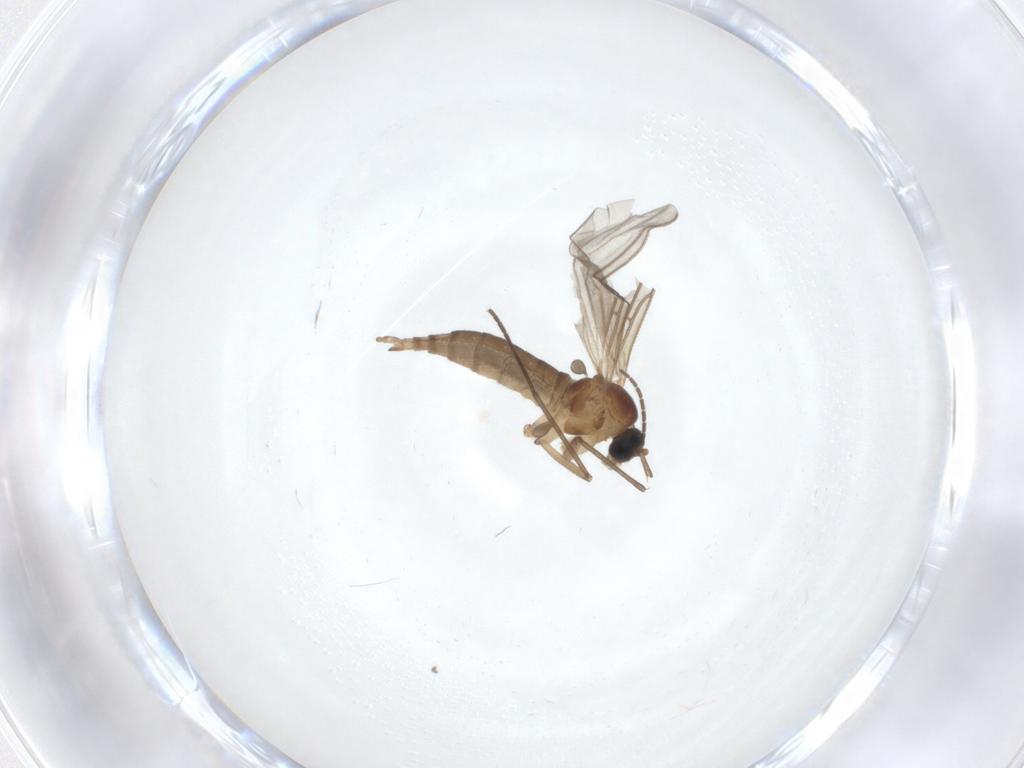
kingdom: Animalia
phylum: Arthropoda
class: Insecta
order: Diptera
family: Sciaridae
